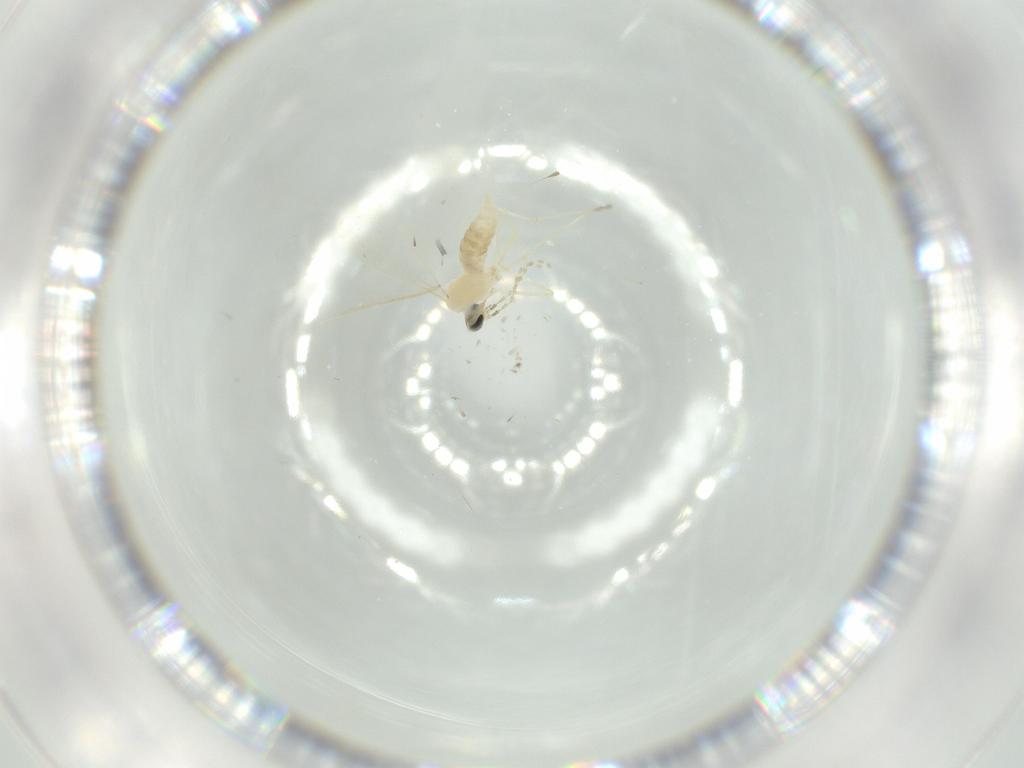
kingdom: Animalia
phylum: Arthropoda
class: Insecta
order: Diptera
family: Cecidomyiidae
